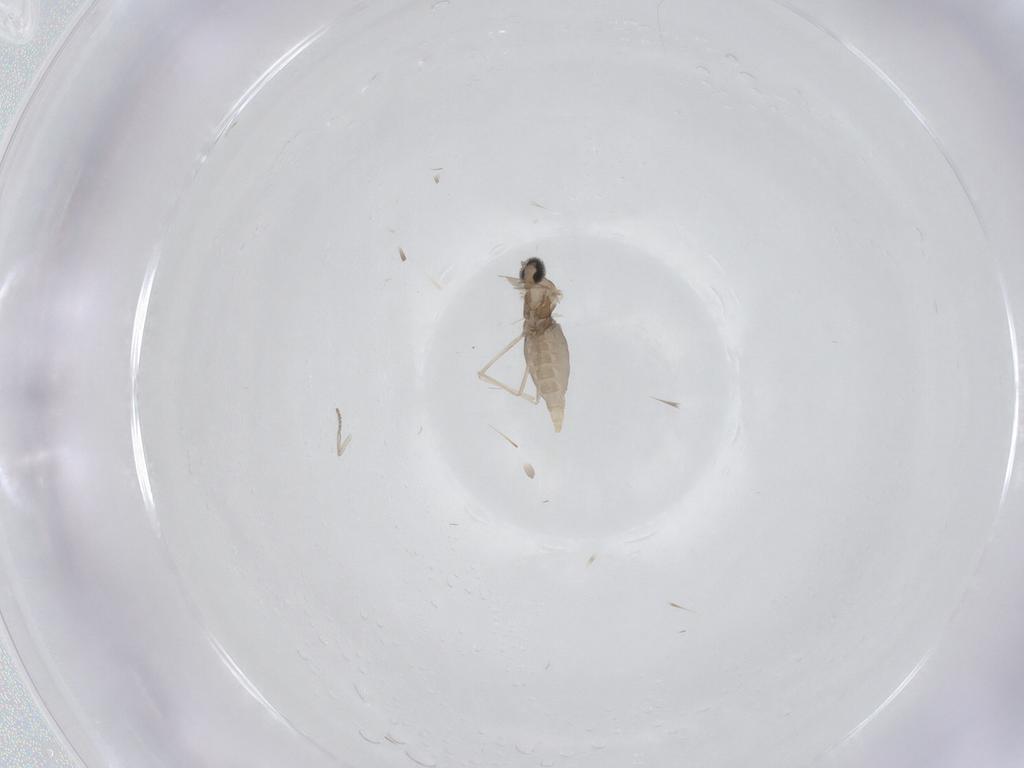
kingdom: Animalia
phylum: Arthropoda
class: Insecta
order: Diptera
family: Psychodidae
